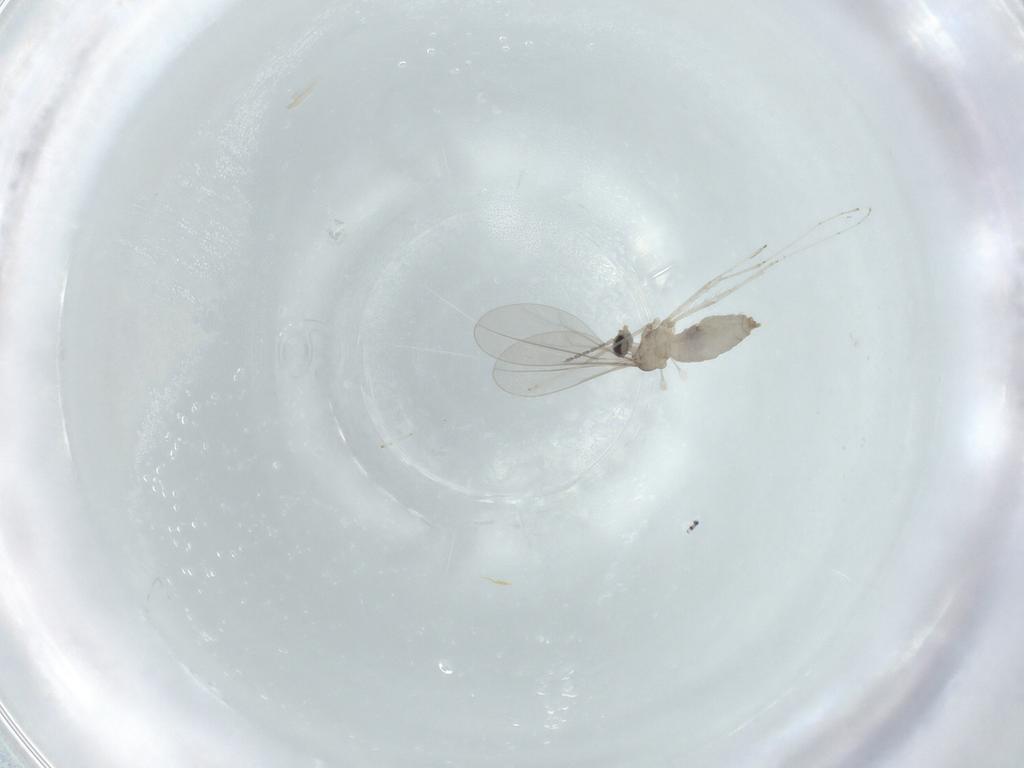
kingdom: Animalia
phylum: Arthropoda
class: Insecta
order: Diptera
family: Cecidomyiidae
